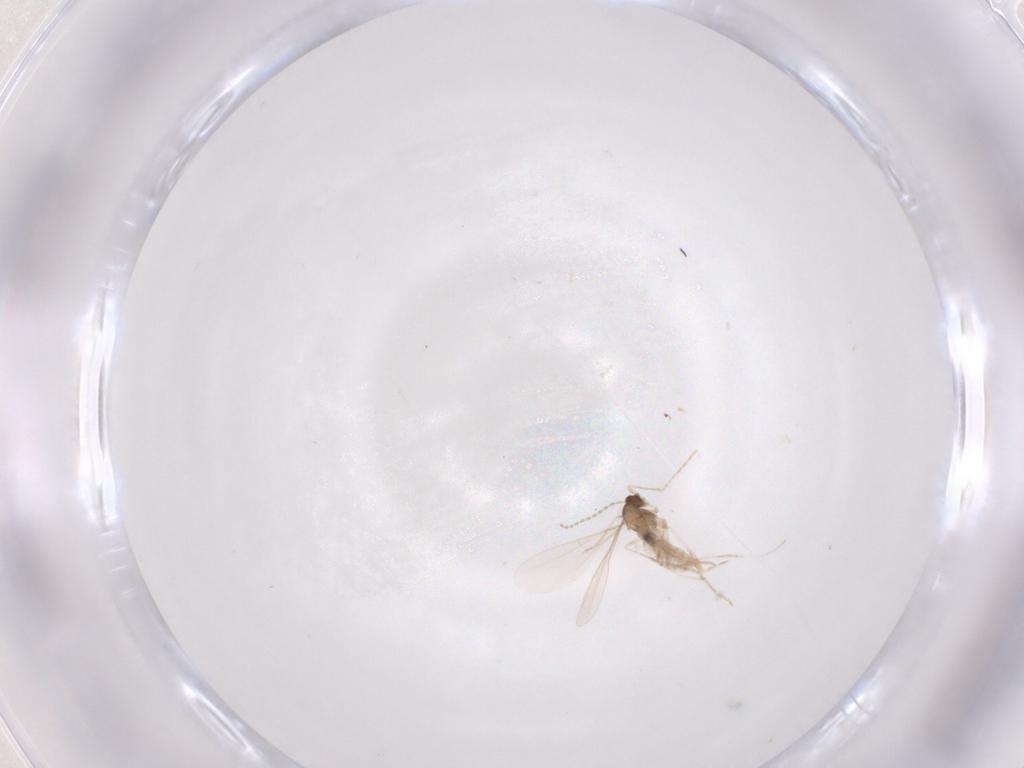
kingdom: Animalia
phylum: Arthropoda
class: Insecta
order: Diptera
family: Cecidomyiidae
